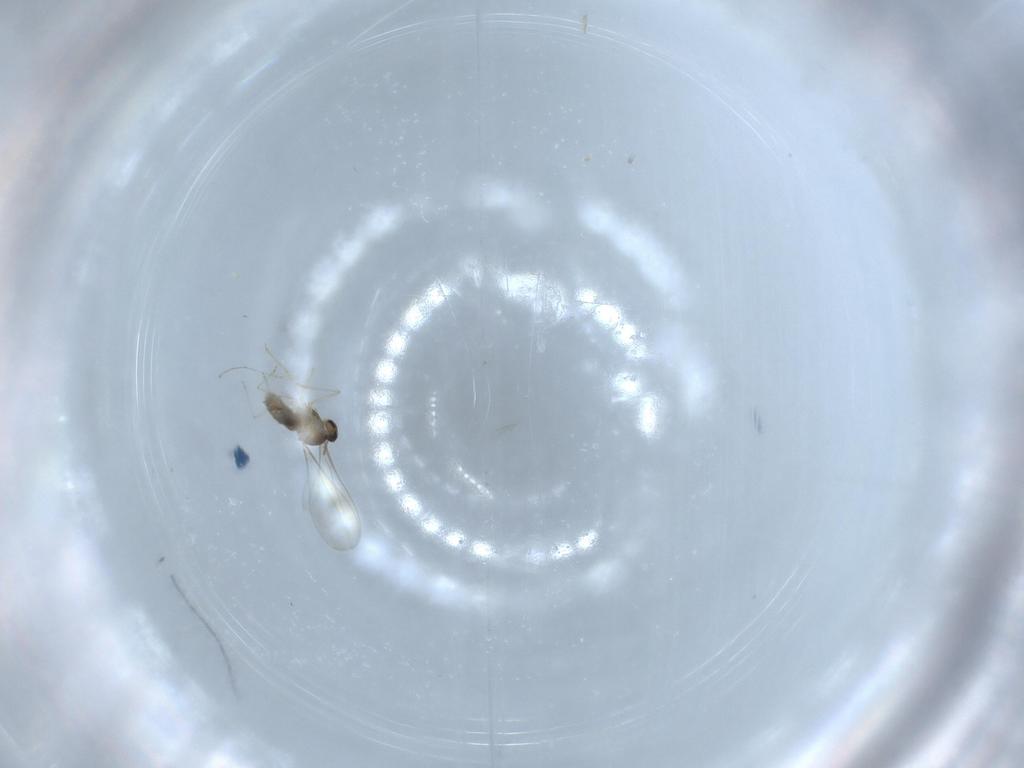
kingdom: Animalia
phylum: Arthropoda
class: Insecta
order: Diptera
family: Cecidomyiidae
